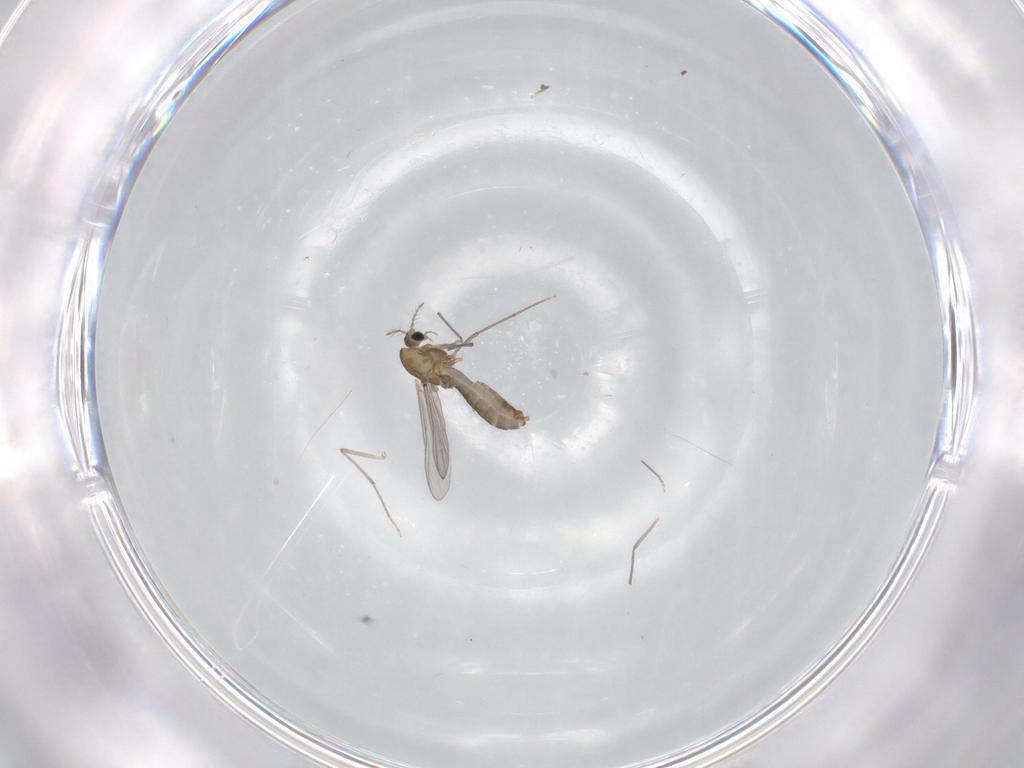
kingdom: Animalia
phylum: Arthropoda
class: Insecta
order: Diptera
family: Chironomidae
